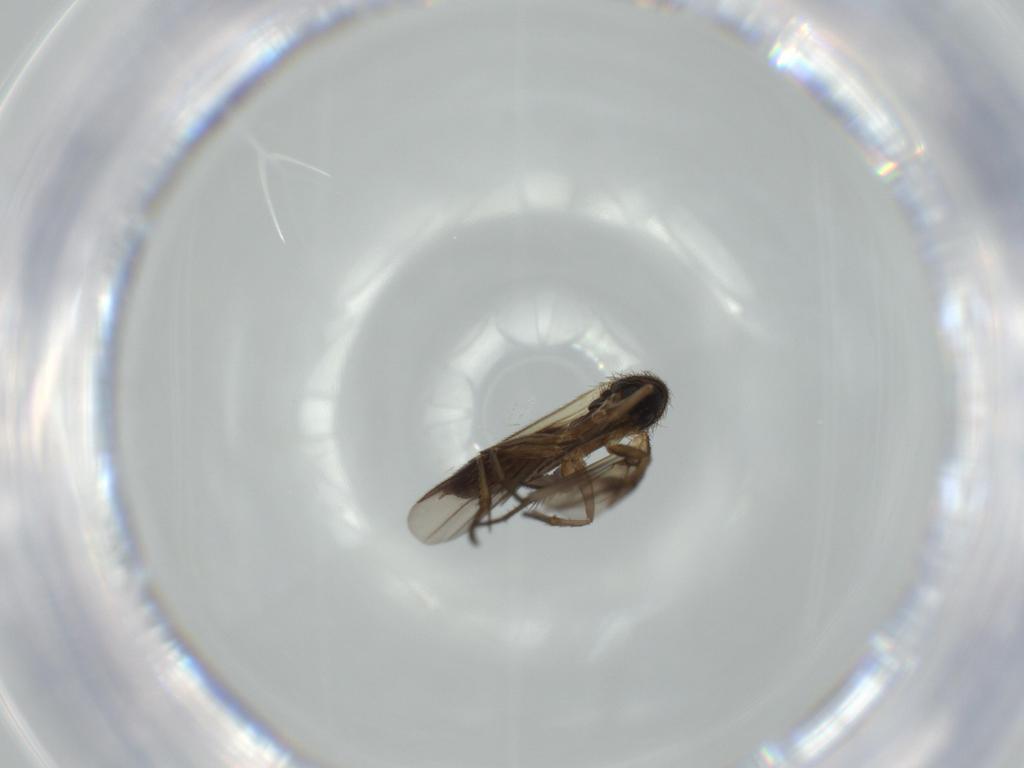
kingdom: Animalia
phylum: Arthropoda
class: Insecta
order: Diptera
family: Mycetophilidae
